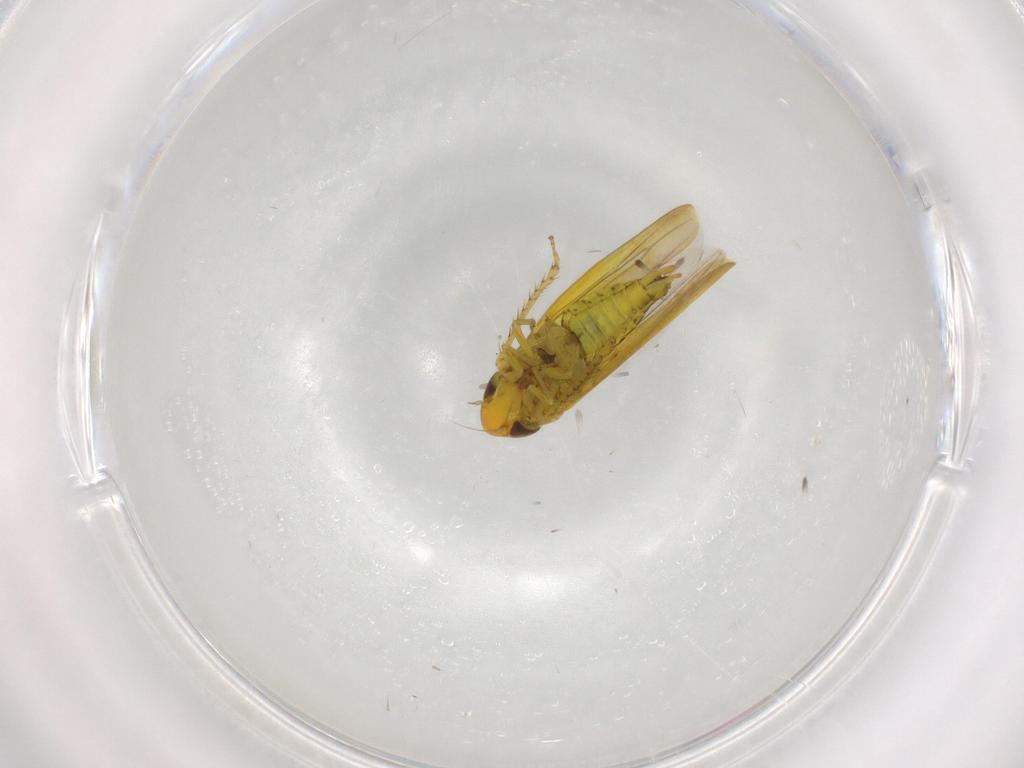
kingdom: Animalia
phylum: Arthropoda
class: Insecta
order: Hemiptera
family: Cicadellidae
